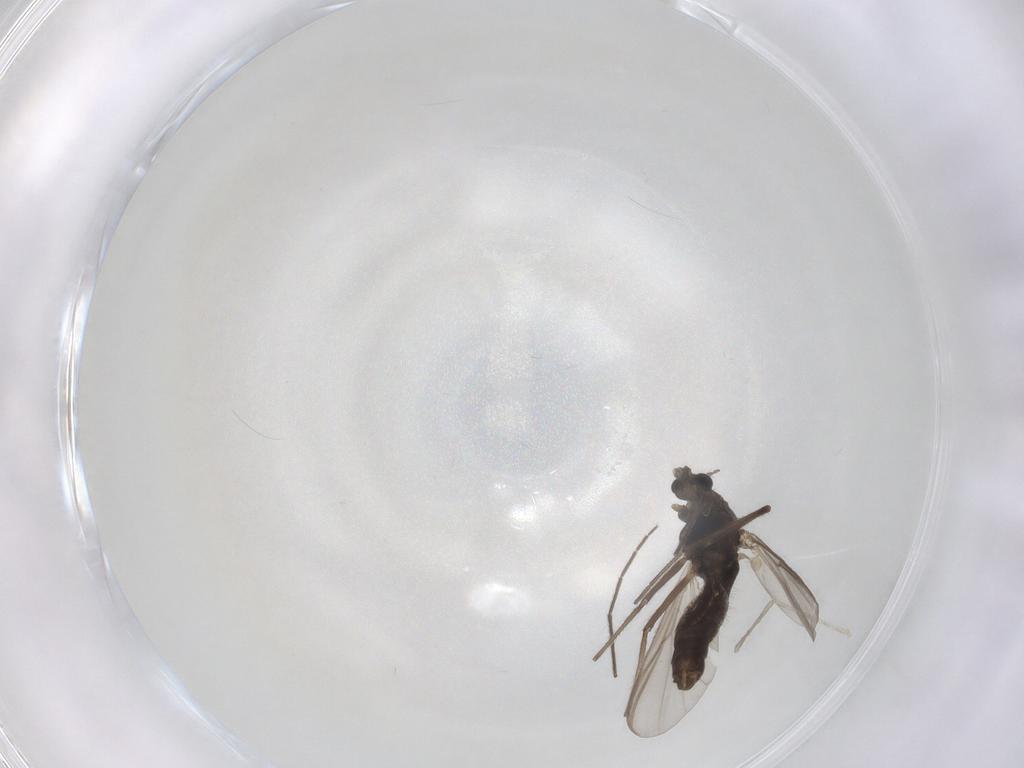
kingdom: Animalia
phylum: Arthropoda
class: Insecta
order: Diptera
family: Chironomidae
